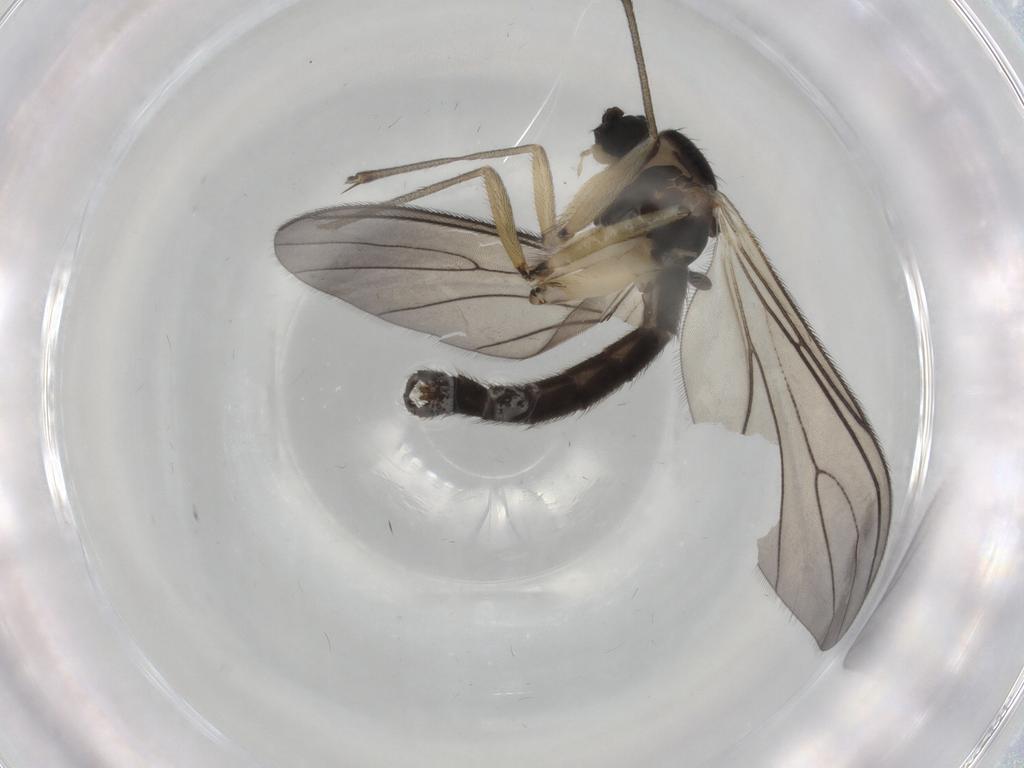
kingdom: Animalia
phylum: Arthropoda
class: Insecta
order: Diptera
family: Sciaridae
